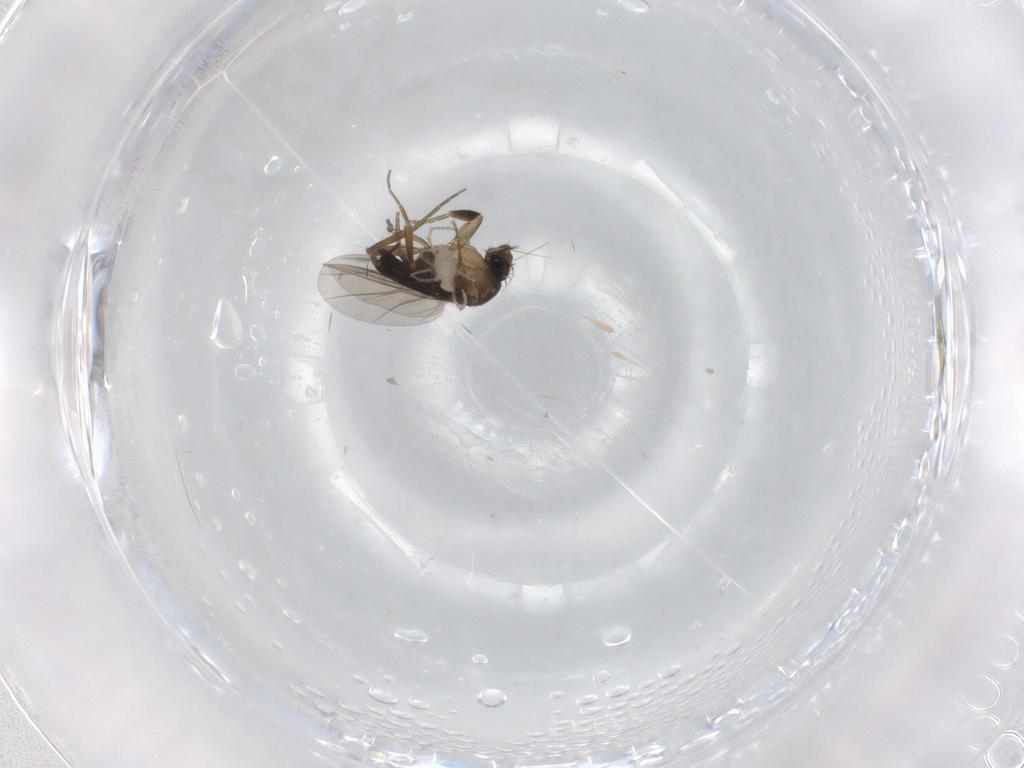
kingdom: Animalia
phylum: Arthropoda
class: Insecta
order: Diptera
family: Phoridae
